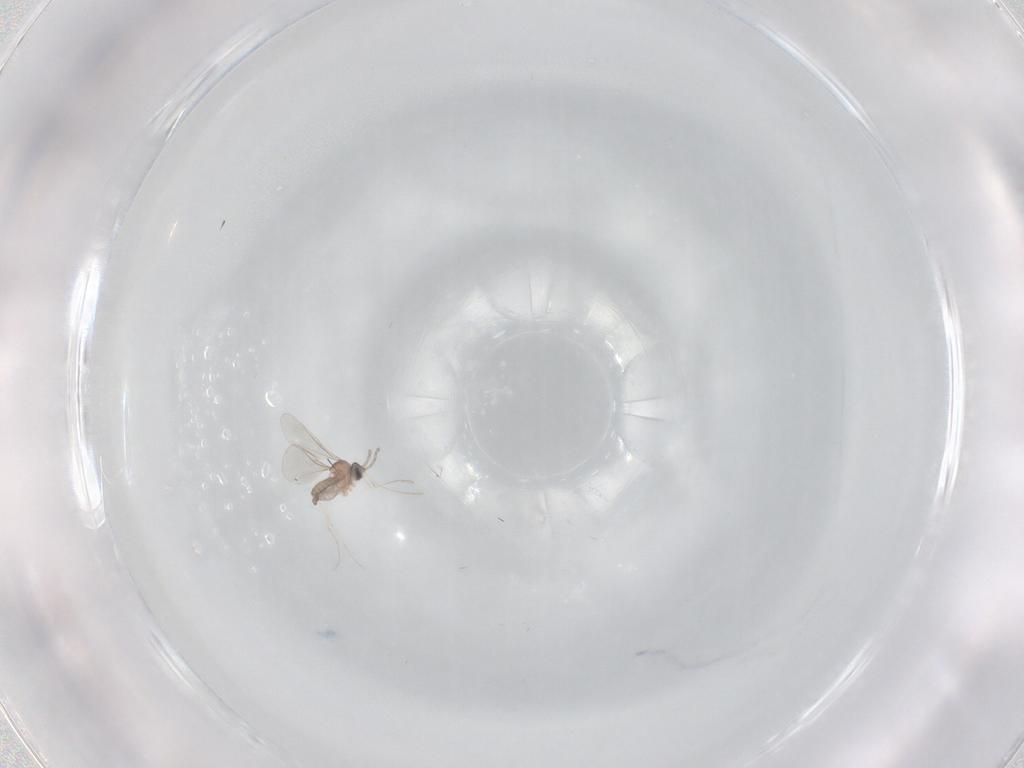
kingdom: Animalia
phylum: Arthropoda
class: Insecta
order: Diptera
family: Cecidomyiidae
